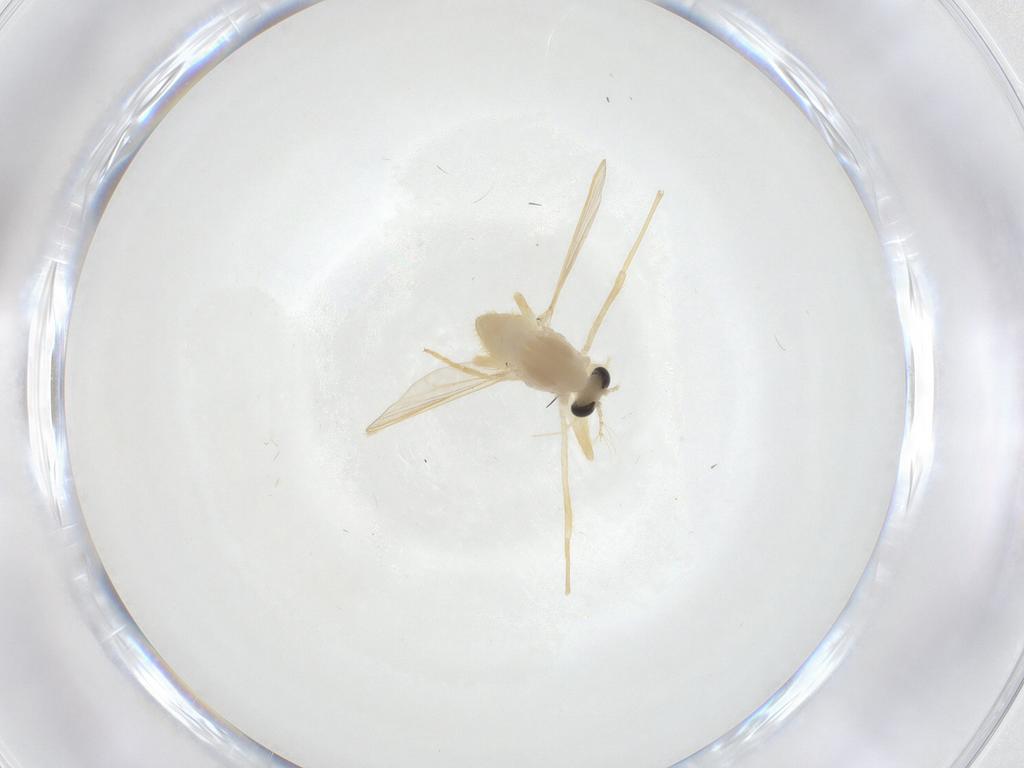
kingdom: Animalia
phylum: Arthropoda
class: Insecta
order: Diptera
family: Chironomidae
